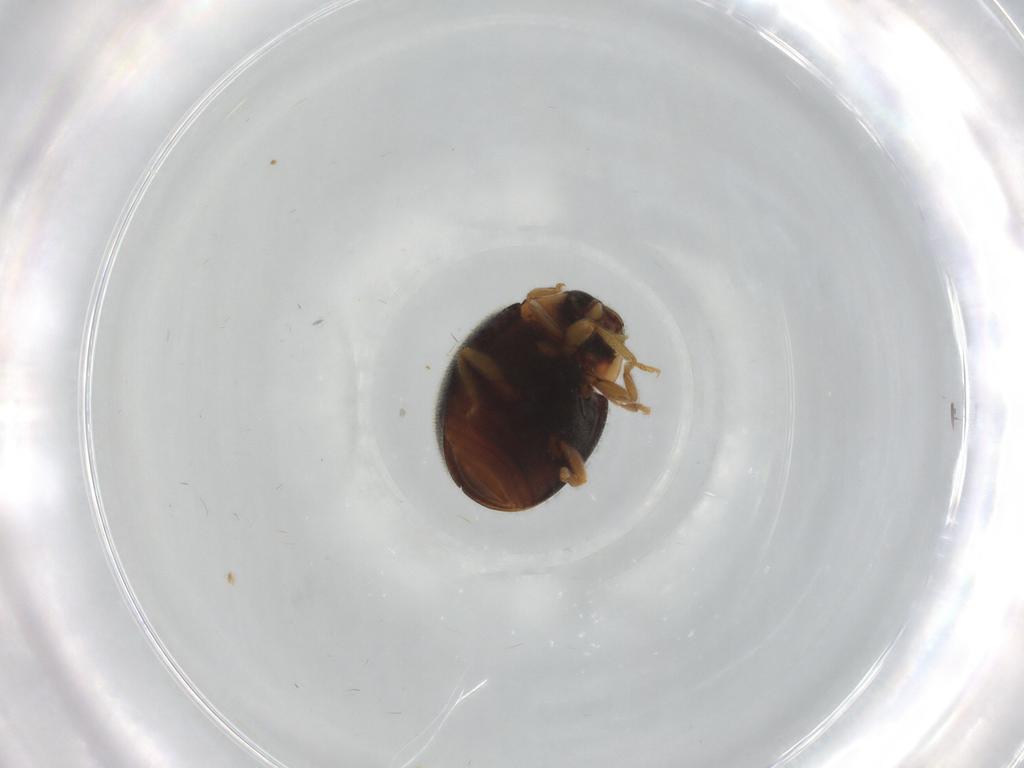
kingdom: Animalia
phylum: Arthropoda
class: Insecta
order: Coleoptera
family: Coccinellidae
